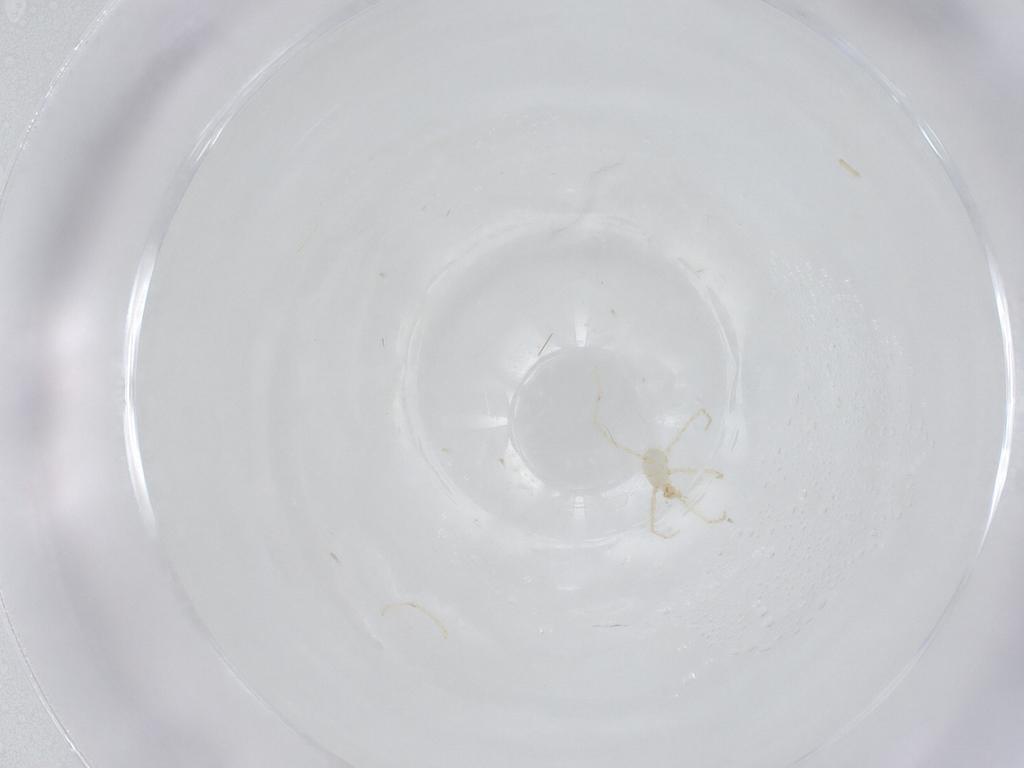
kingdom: Animalia
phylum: Arthropoda
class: Arachnida
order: Trombidiformes
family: Erythraeidae
